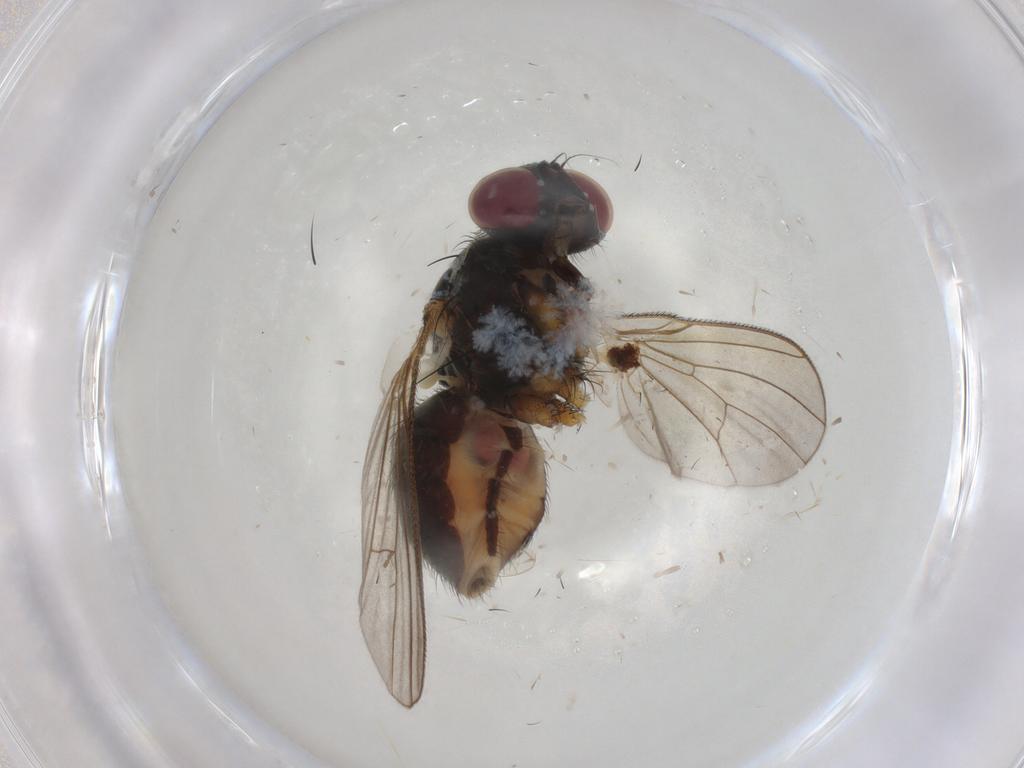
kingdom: Animalia
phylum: Arthropoda
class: Insecta
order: Diptera
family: Muscidae
